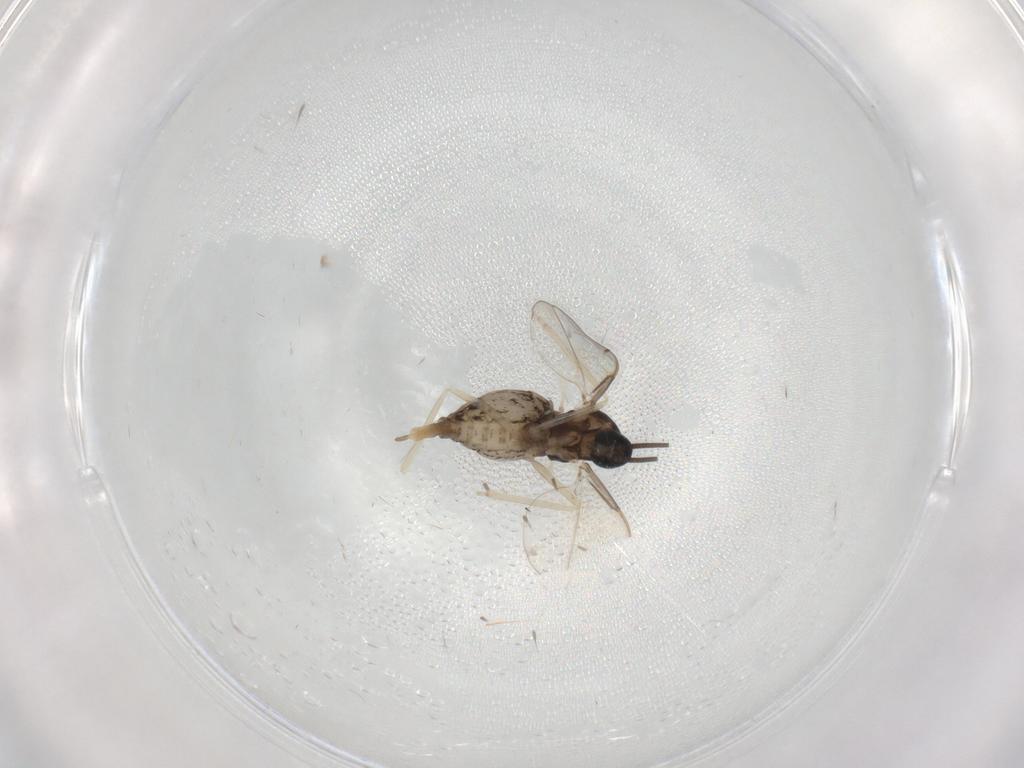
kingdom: Animalia
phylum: Arthropoda
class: Insecta
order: Diptera
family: Cecidomyiidae
